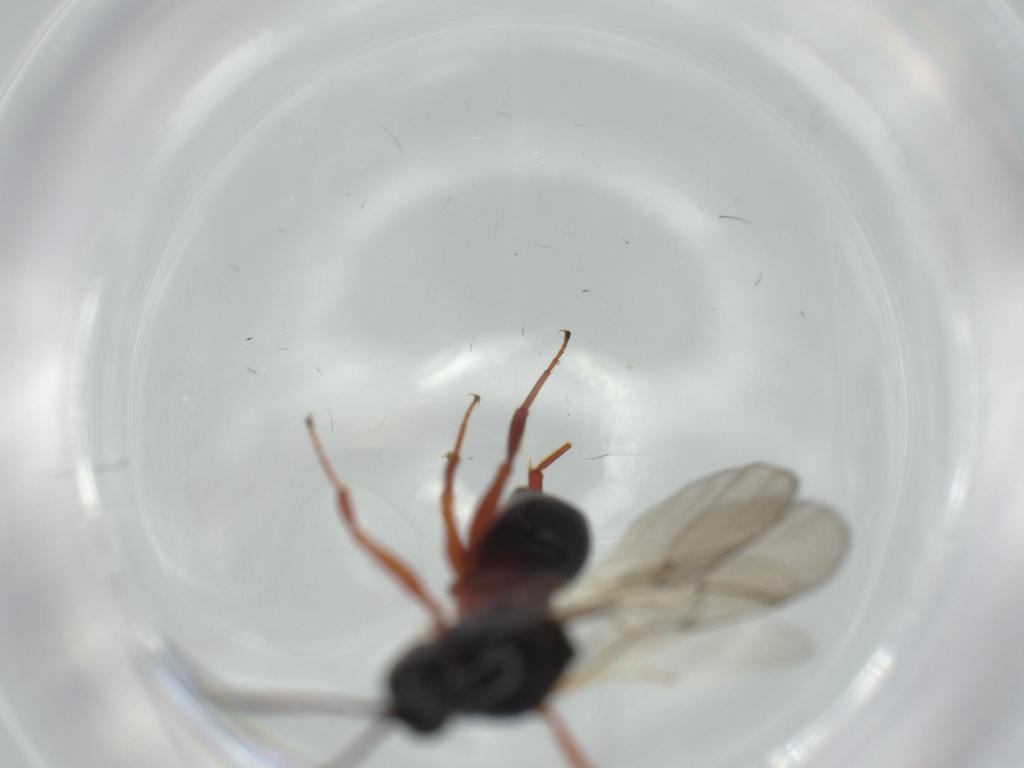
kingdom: Animalia
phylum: Arthropoda
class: Insecta
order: Hymenoptera
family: Figitidae
